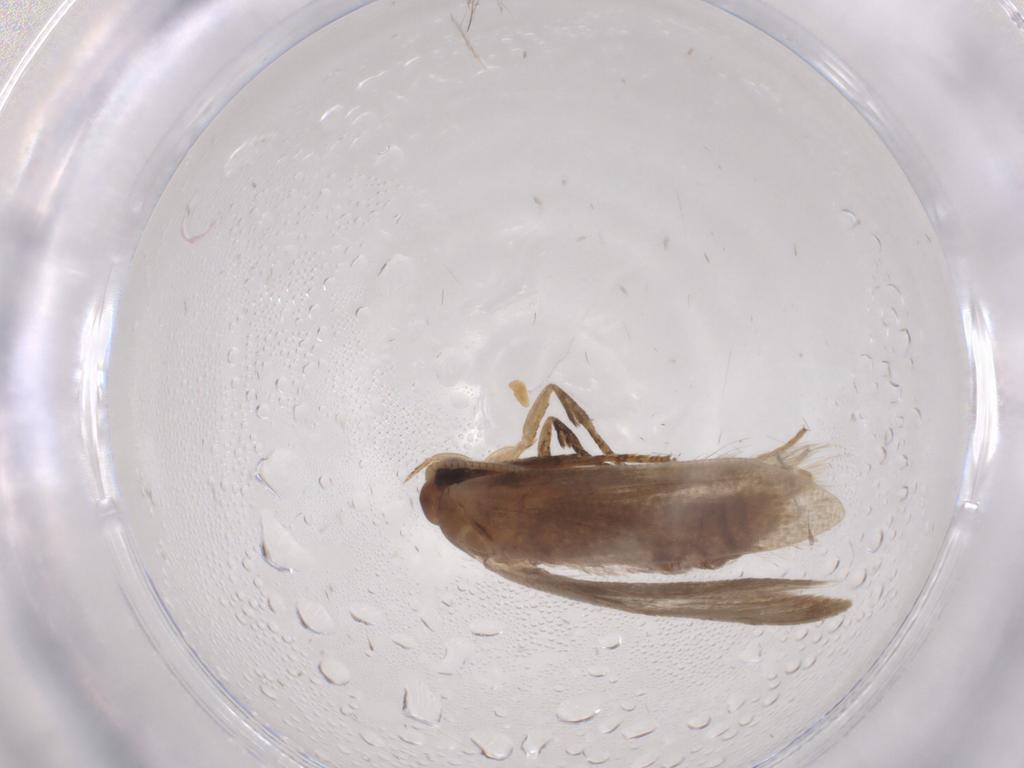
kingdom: Animalia
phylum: Arthropoda
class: Insecta
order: Lepidoptera
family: Blastobasidae
